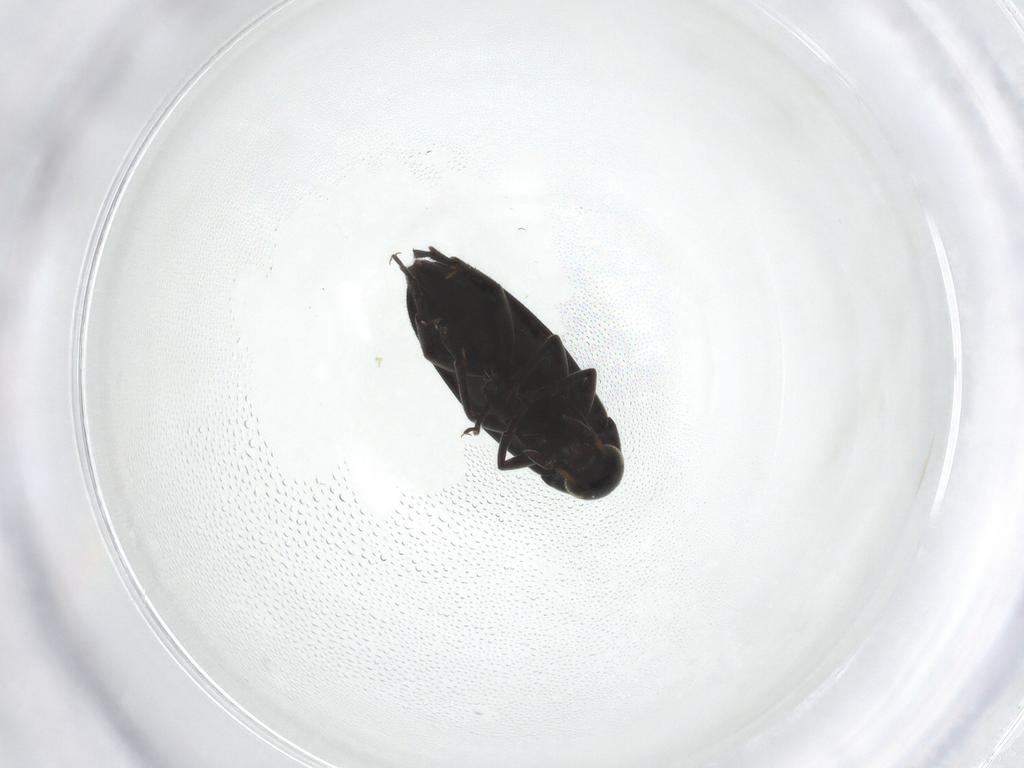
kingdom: Animalia
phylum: Arthropoda
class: Insecta
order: Coleoptera
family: Scraptiidae
